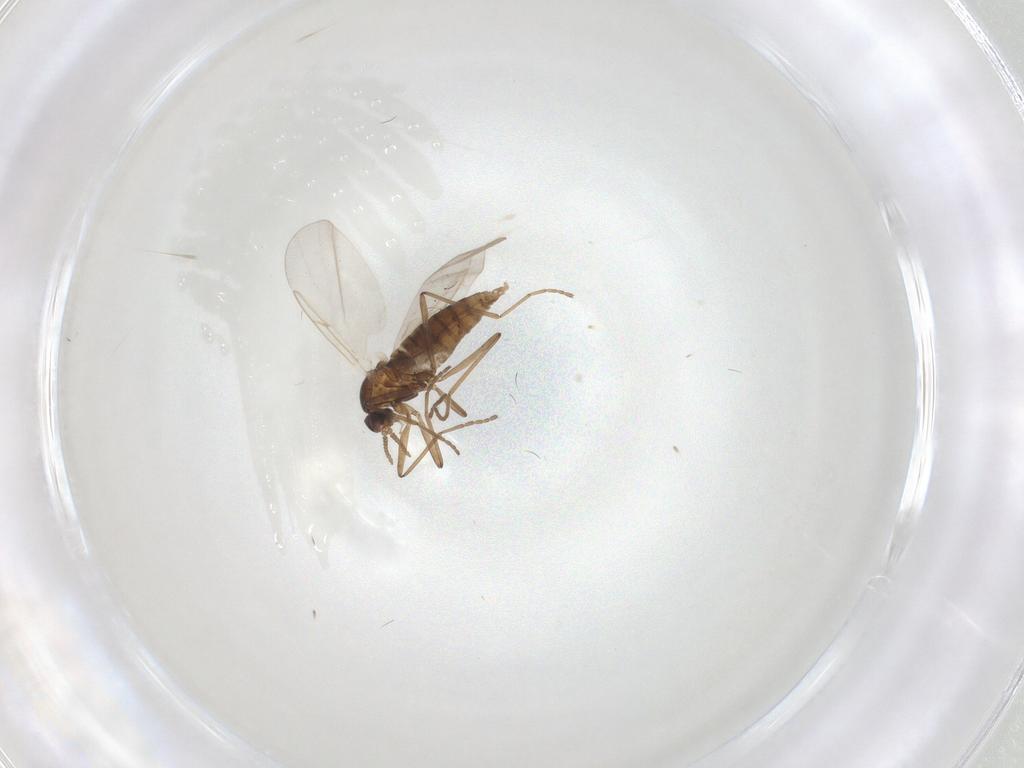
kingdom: Animalia
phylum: Arthropoda
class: Insecta
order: Diptera
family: Cecidomyiidae
